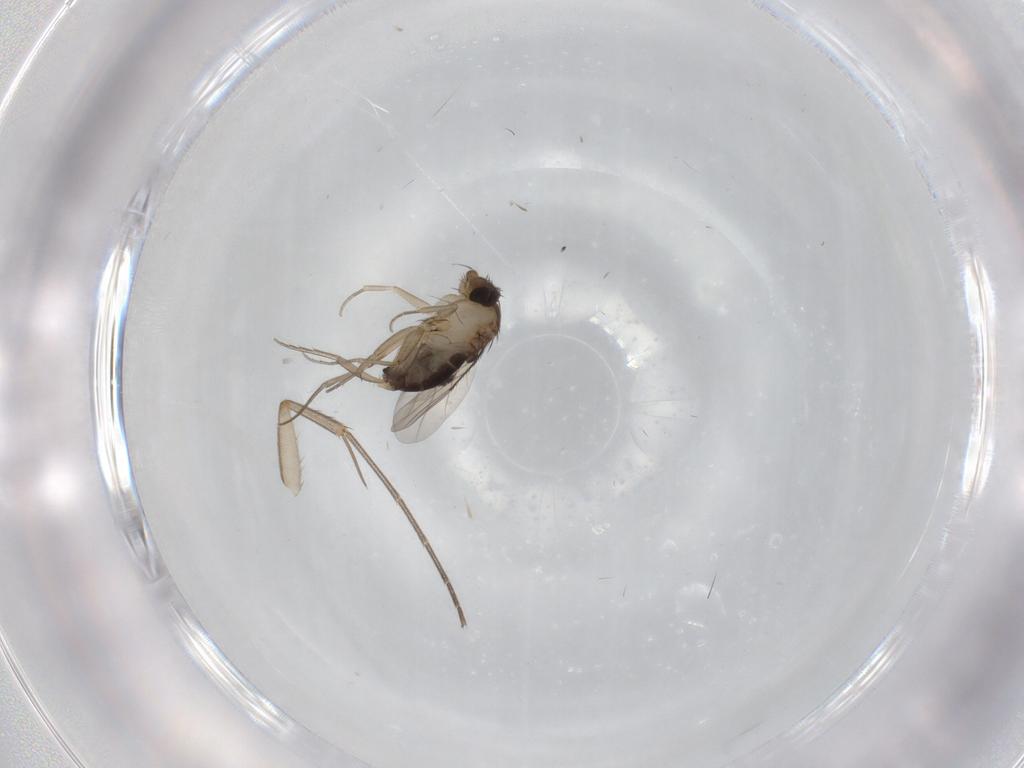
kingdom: Animalia
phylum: Arthropoda
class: Insecta
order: Diptera
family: Phoridae
